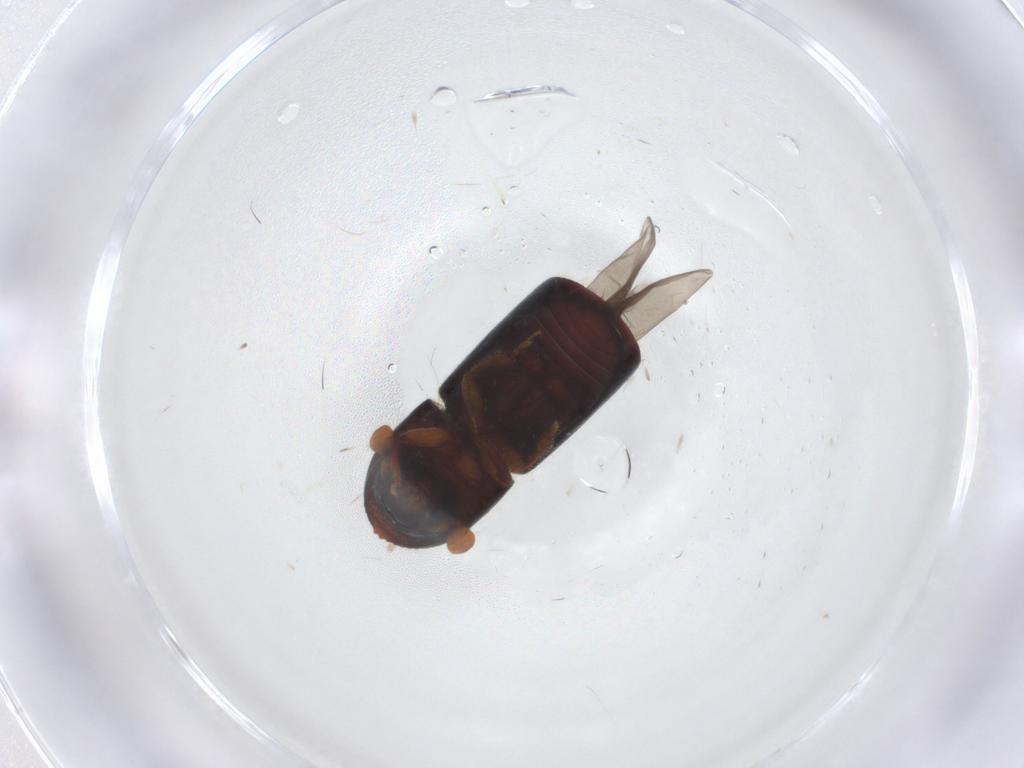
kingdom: Animalia
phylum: Arthropoda
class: Insecta
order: Coleoptera
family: Curculionidae
